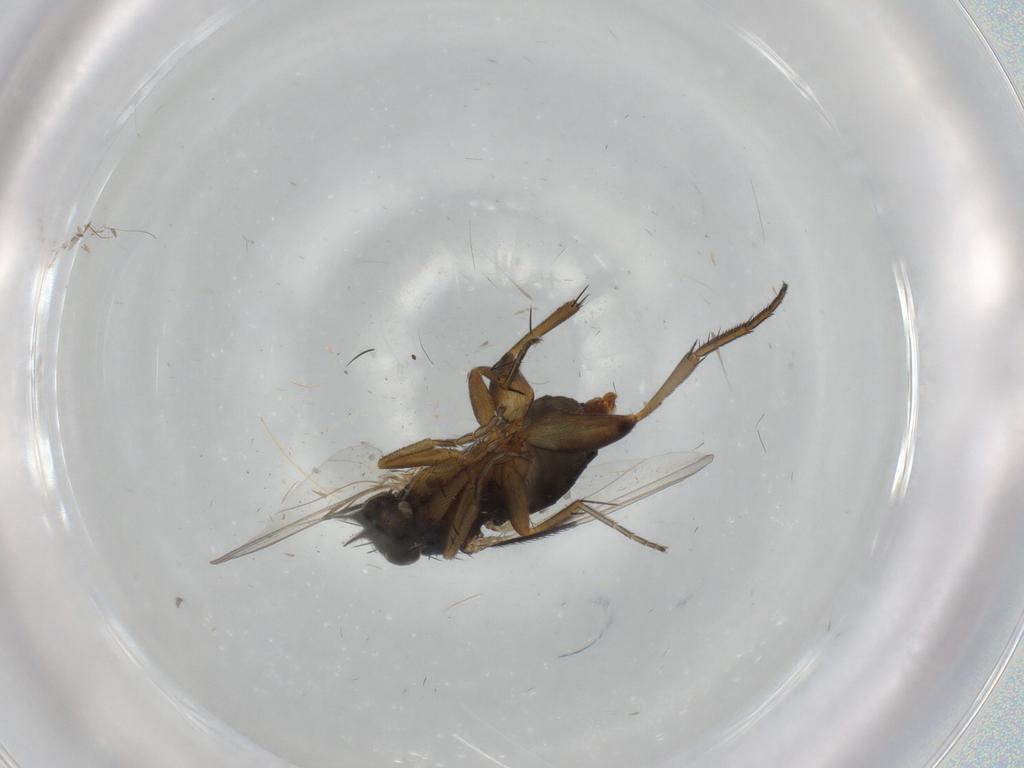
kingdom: Animalia
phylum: Arthropoda
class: Insecta
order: Diptera
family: Phoridae
